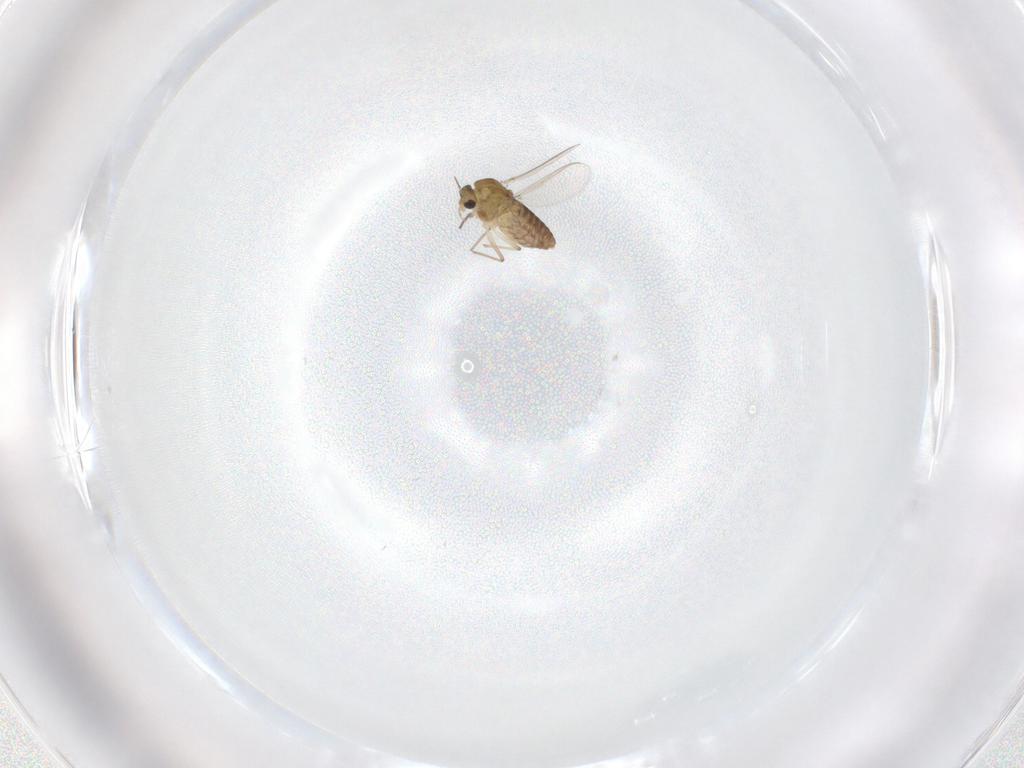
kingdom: Animalia
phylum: Arthropoda
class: Insecta
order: Diptera
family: Chironomidae
